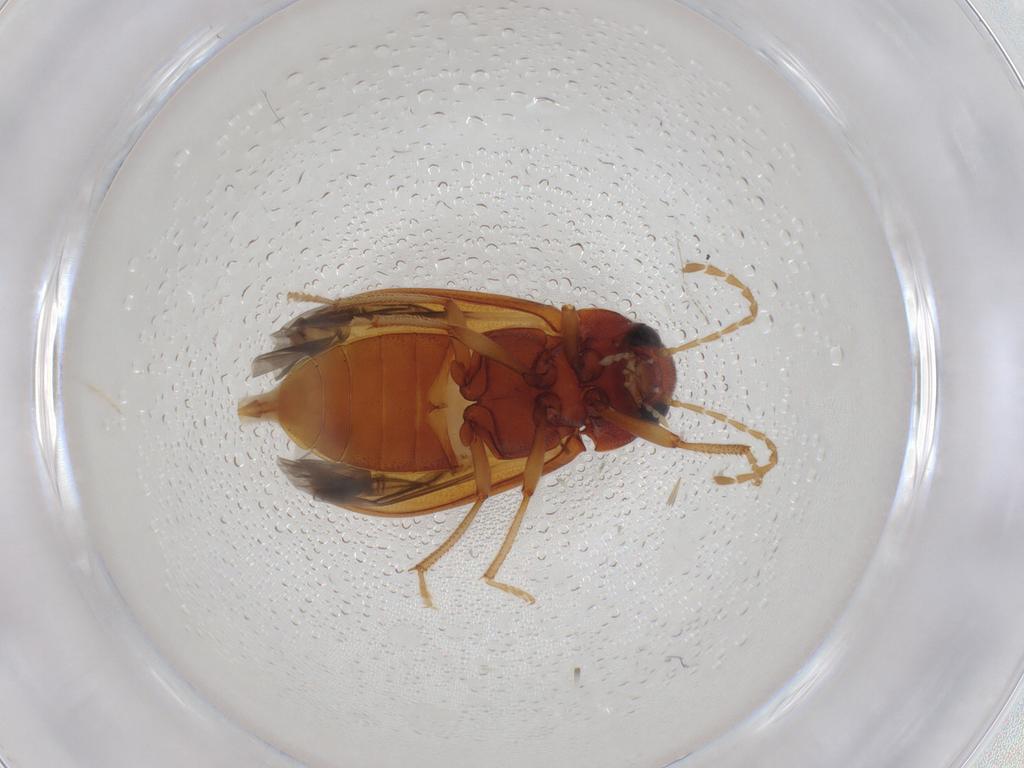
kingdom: Animalia
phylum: Arthropoda
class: Insecta
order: Coleoptera
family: Ptilodactylidae
